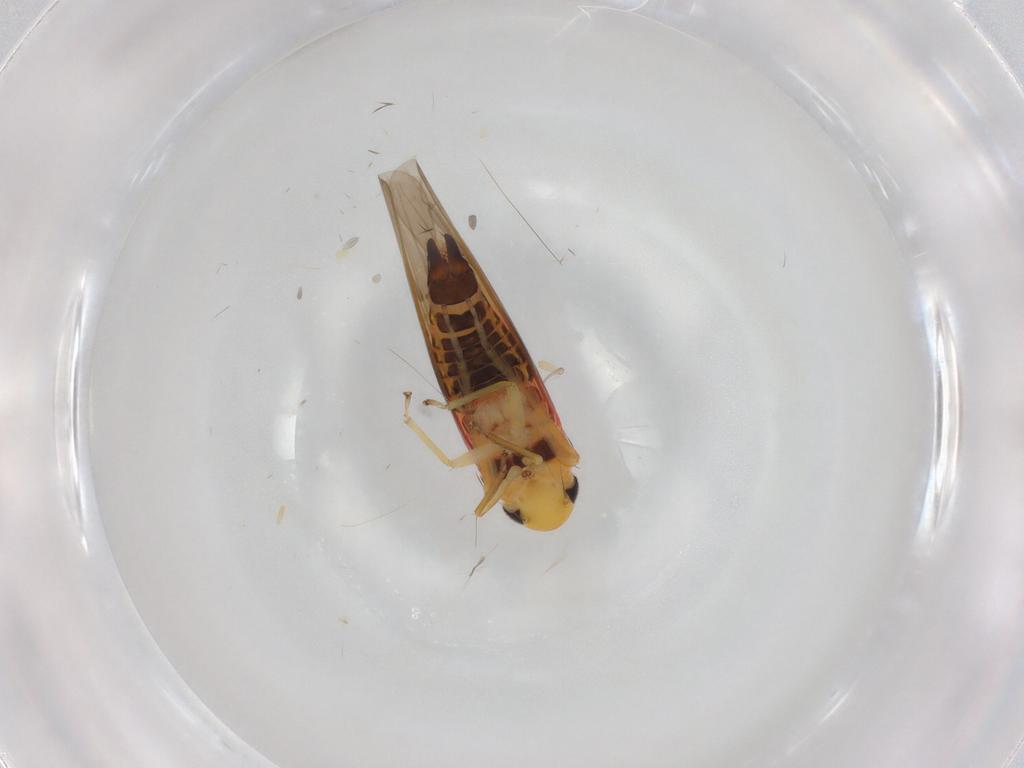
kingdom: Animalia
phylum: Arthropoda
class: Insecta
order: Hemiptera
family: Cicadellidae
